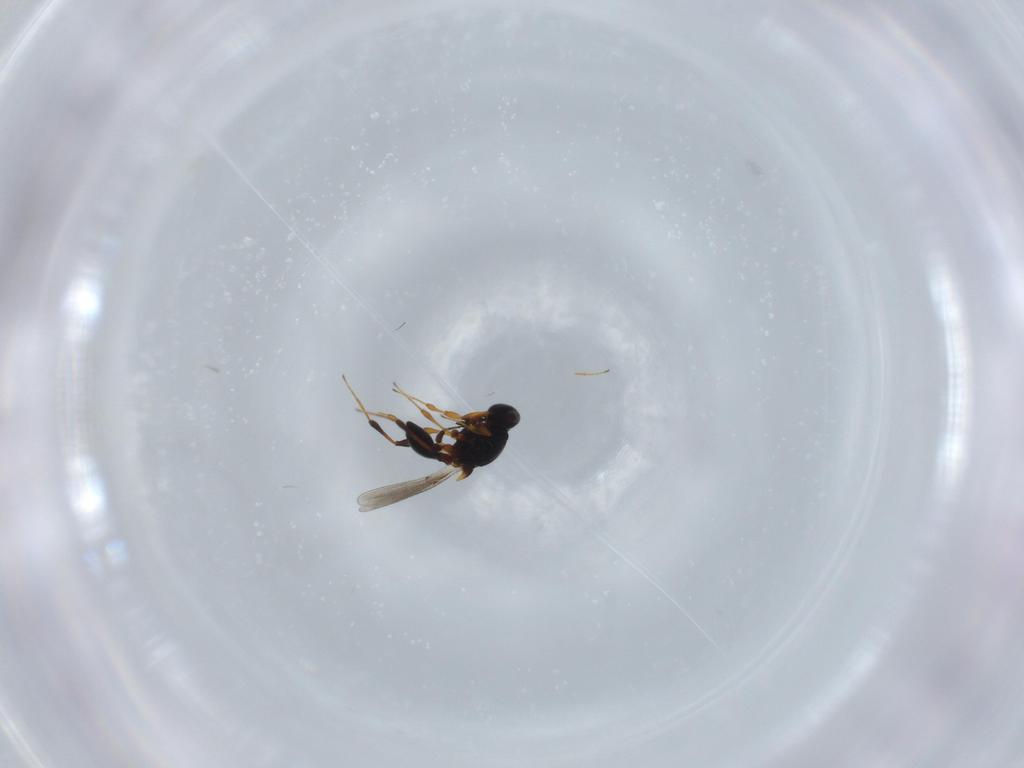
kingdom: Animalia
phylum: Arthropoda
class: Insecta
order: Hymenoptera
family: Platygastridae
